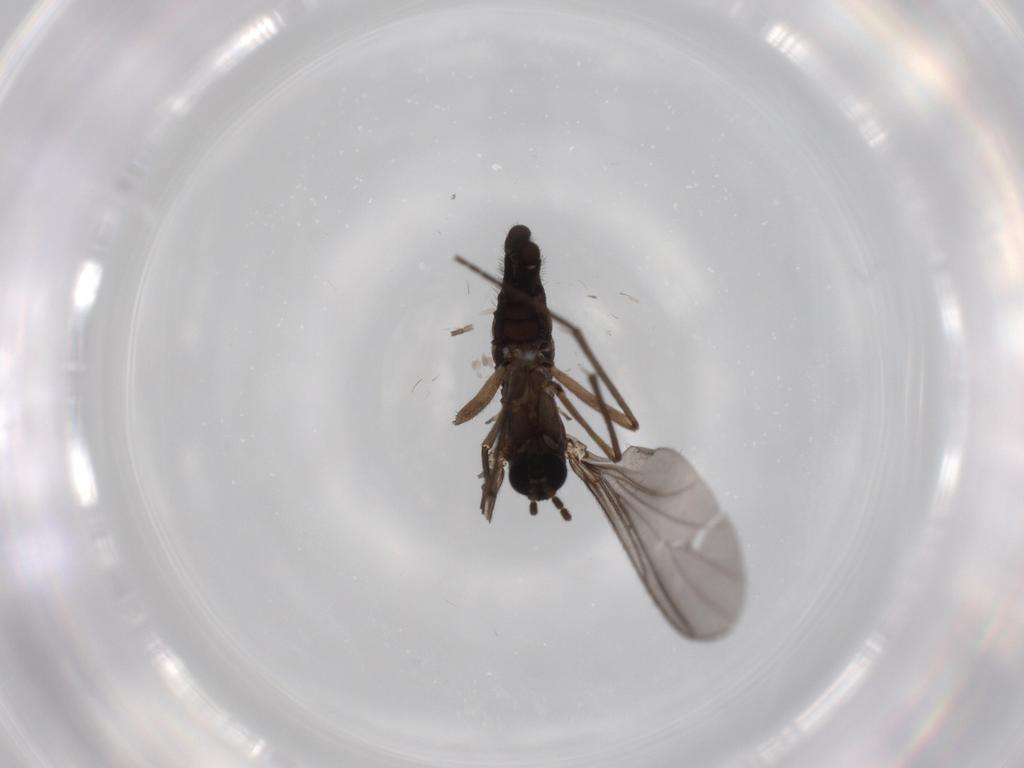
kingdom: Animalia
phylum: Arthropoda
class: Insecta
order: Diptera
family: Sciaridae
